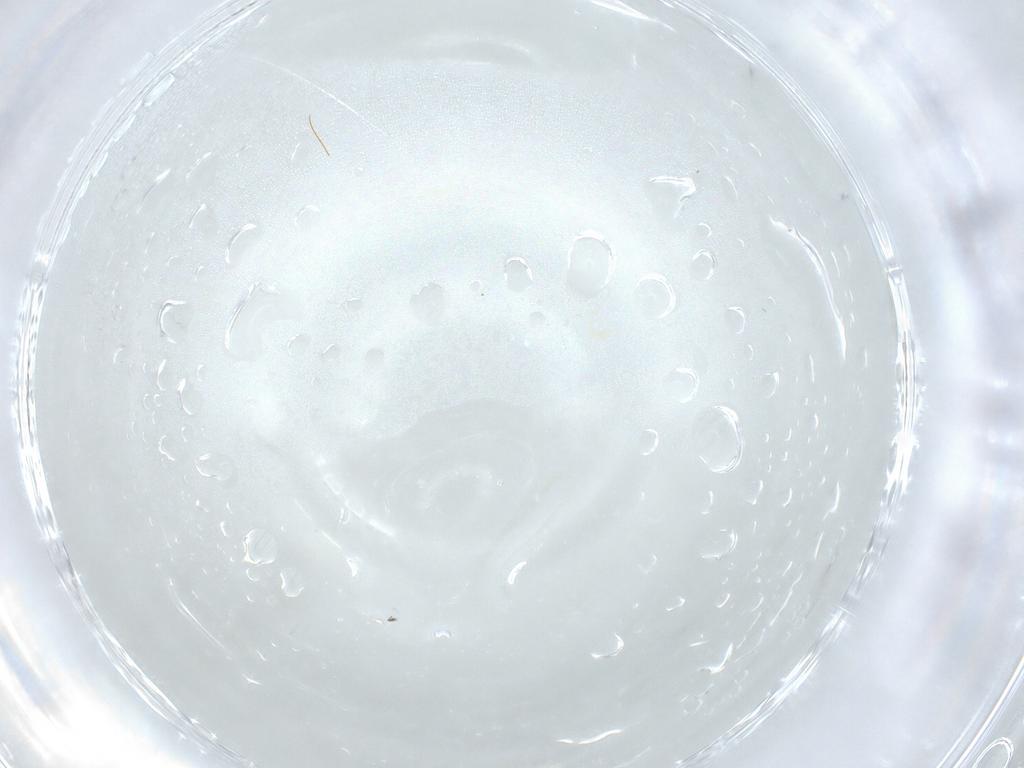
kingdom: Animalia
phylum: Arthropoda
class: Arachnida
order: Trombidiformes
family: Anystidae
